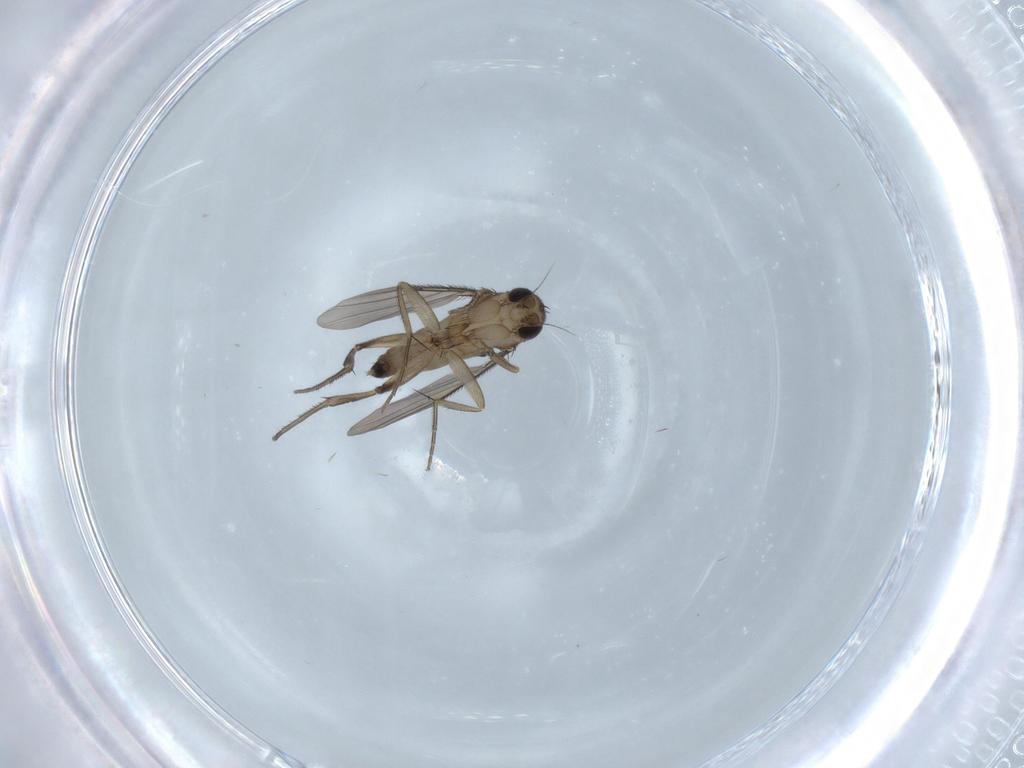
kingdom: Animalia
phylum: Arthropoda
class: Insecta
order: Diptera
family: Phoridae
